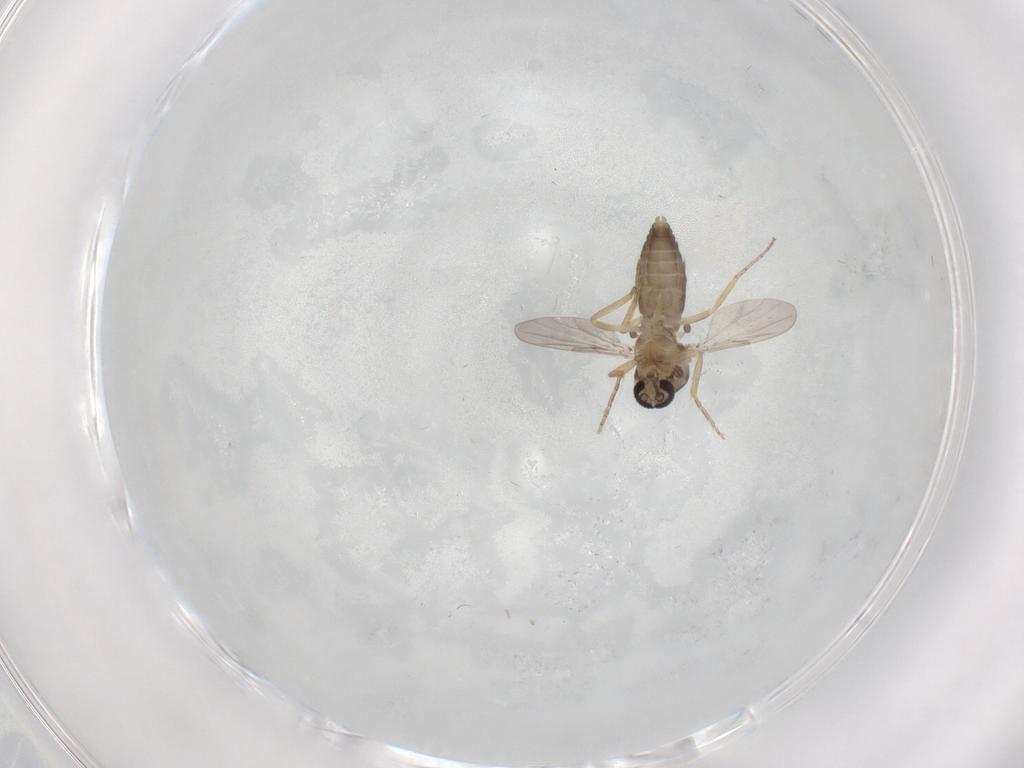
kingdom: Animalia
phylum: Arthropoda
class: Insecta
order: Diptera
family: Ceratopogonidae
